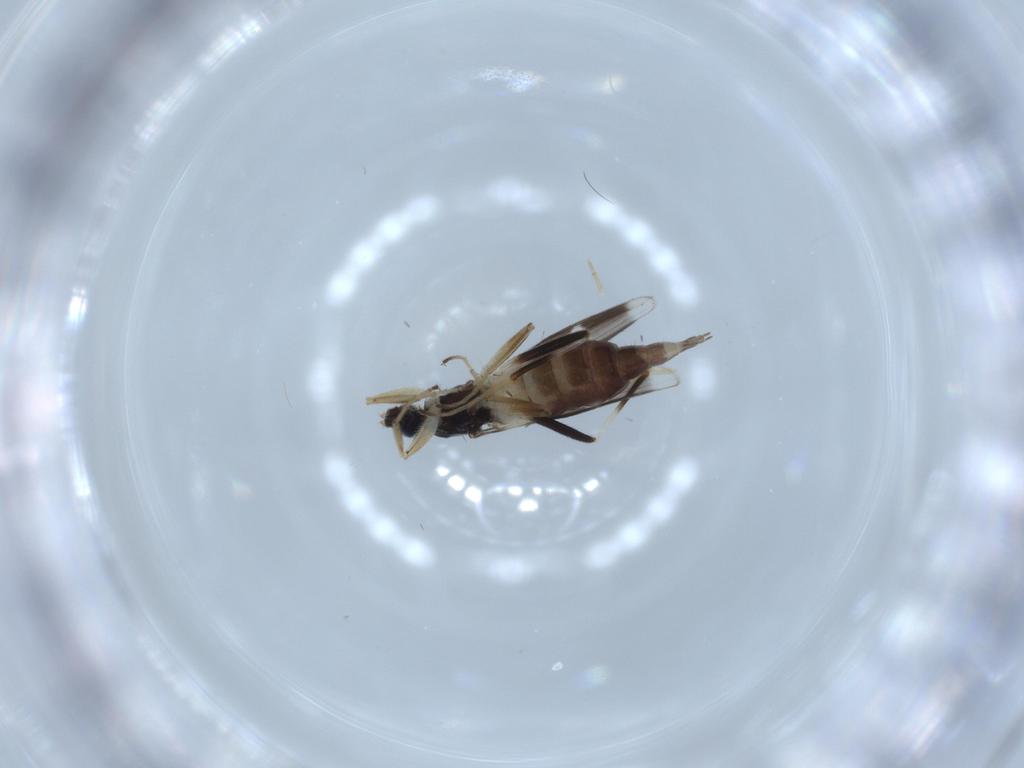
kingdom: Animalia
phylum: Arthropoda
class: Insecta
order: Diptera
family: Hybotidae
